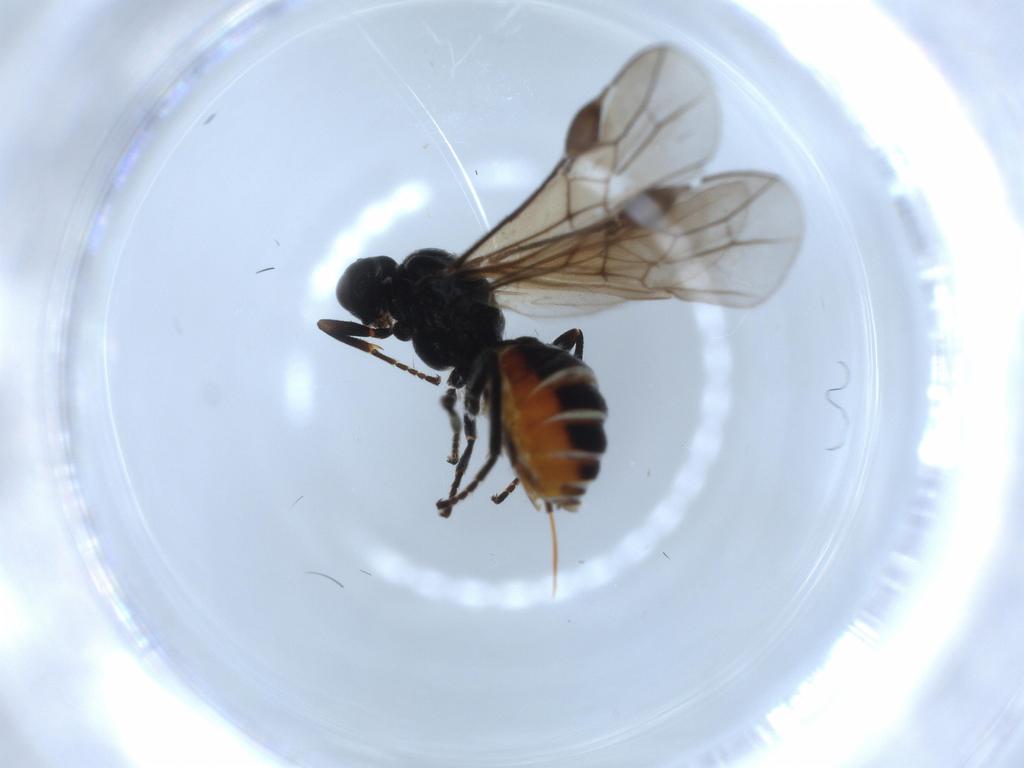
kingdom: Animalia
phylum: Arthropoda
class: Insecta
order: Hymenoptera
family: Braconidae
